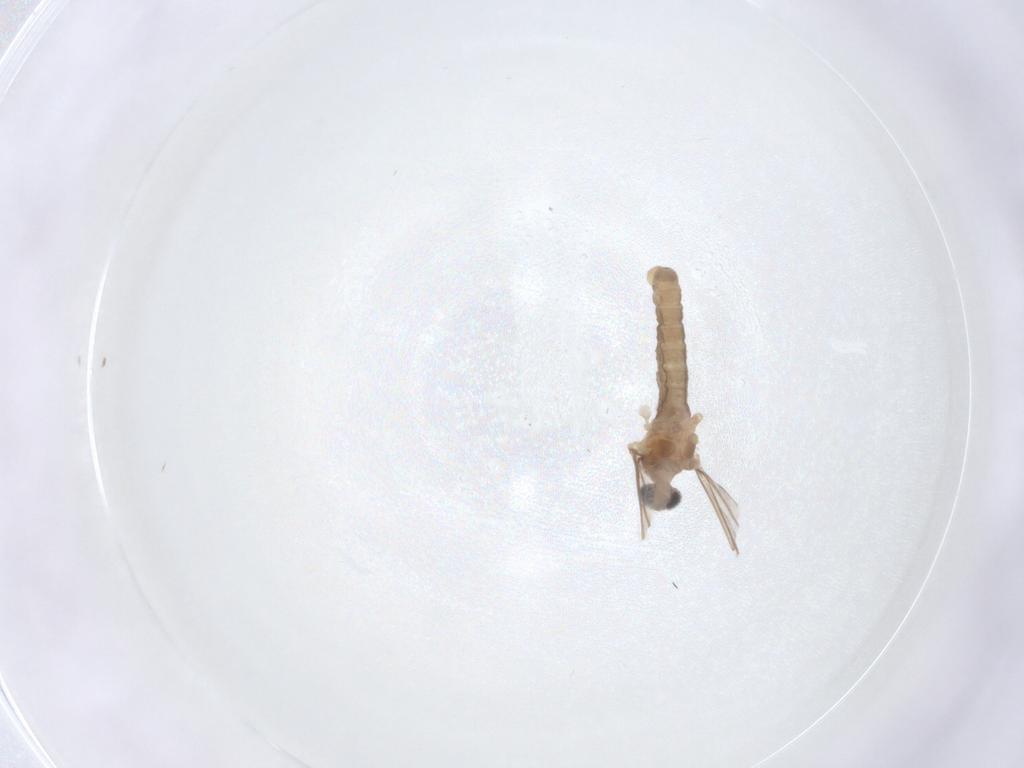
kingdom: Animalia
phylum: Arthropoda
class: Insecta
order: Diptera
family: Cecidomyiidae
